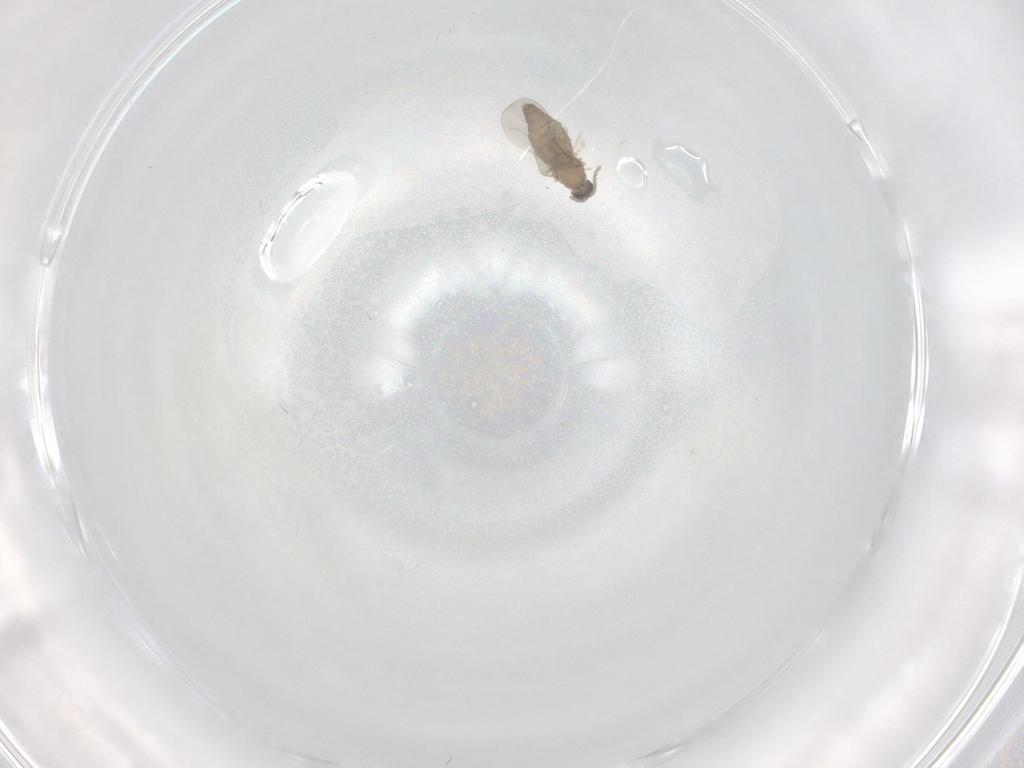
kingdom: Animalia
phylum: Arthropoda
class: Insecta
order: Diptera
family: Cecidomyiidae
